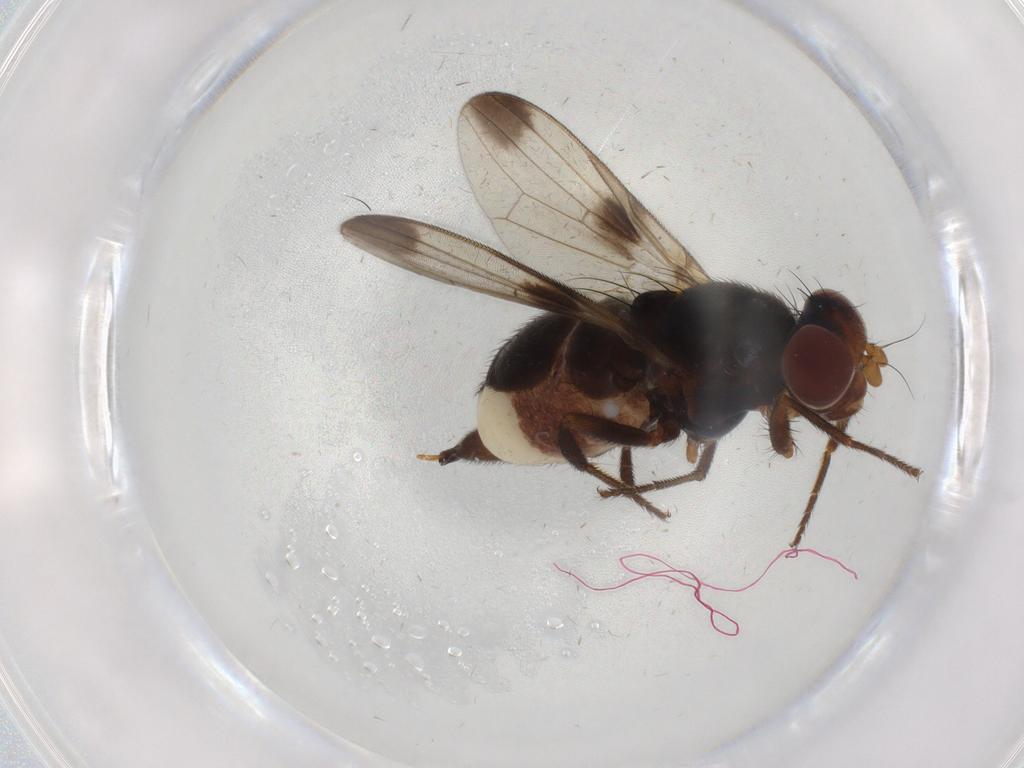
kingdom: Animalia
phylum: Arthropoda
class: Insecta
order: Diptera
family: Ulidiidae
